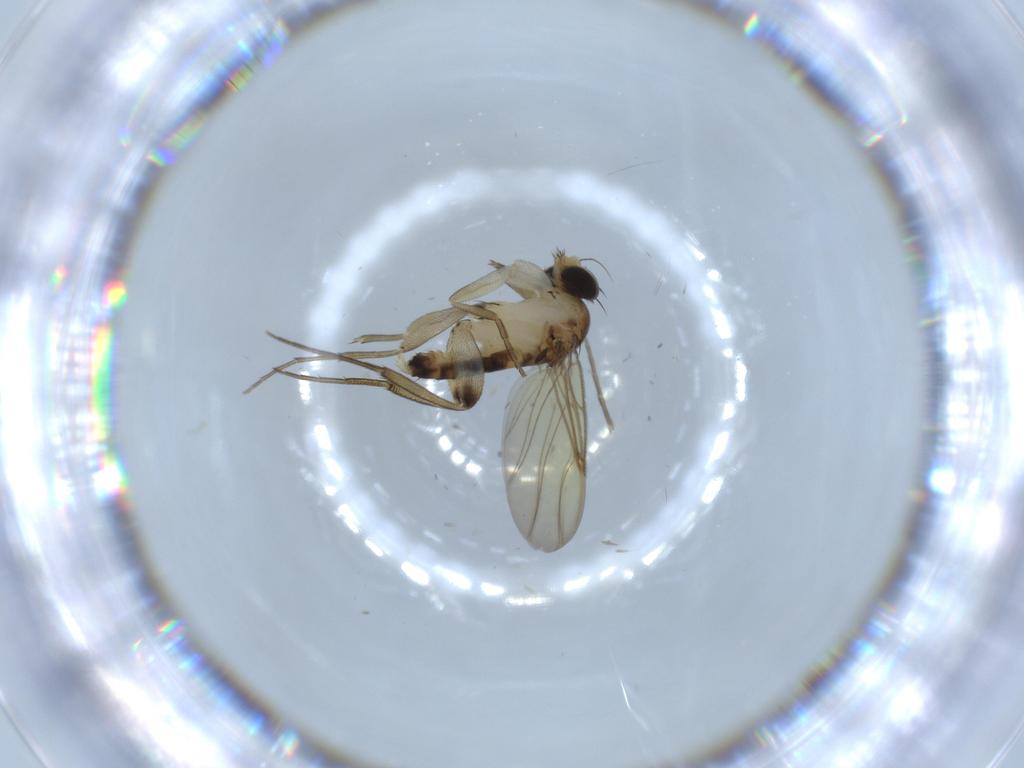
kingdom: Animalia
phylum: Arthropoda
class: Insecta
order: Diptera
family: Phoridae
